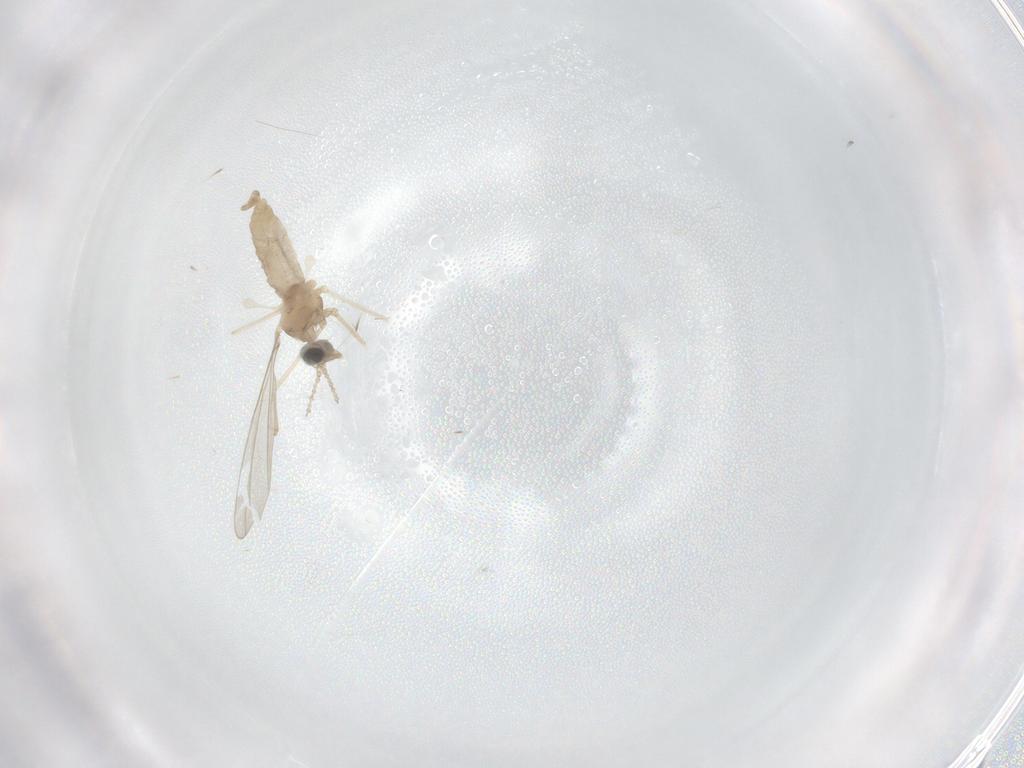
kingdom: Animalia
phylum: Arthropoda
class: Insecta
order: Diptera
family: Cecidomyiidae
